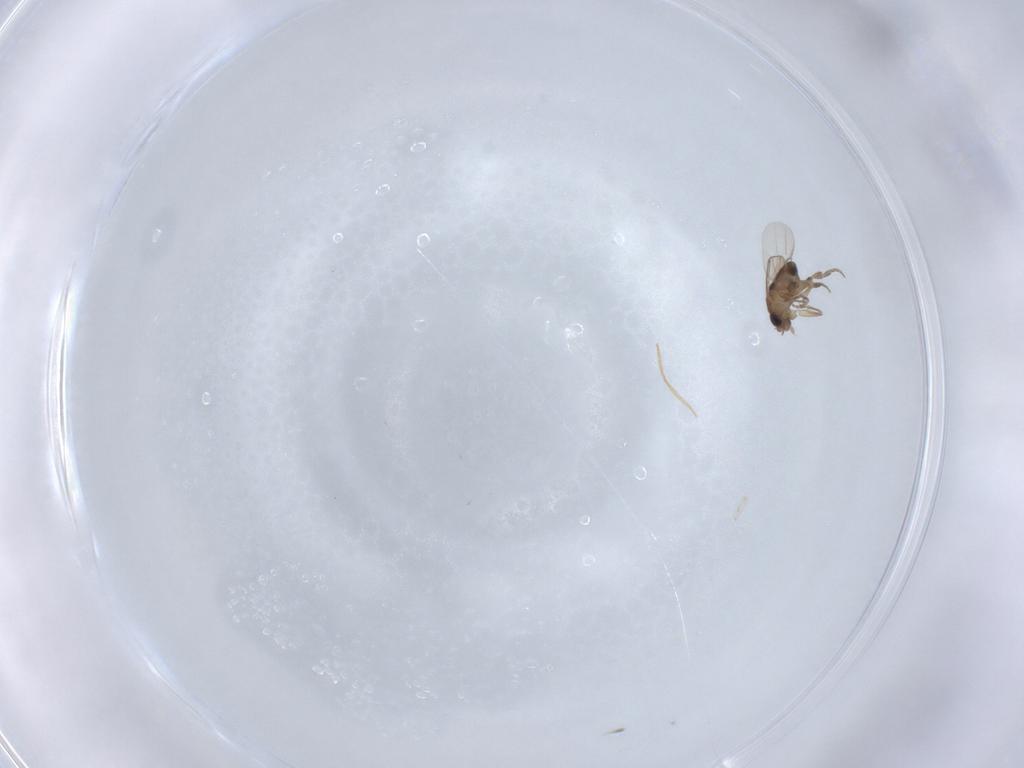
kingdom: Animalia
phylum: Arthropoda
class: Insecta
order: Diptera
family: Phoridae
